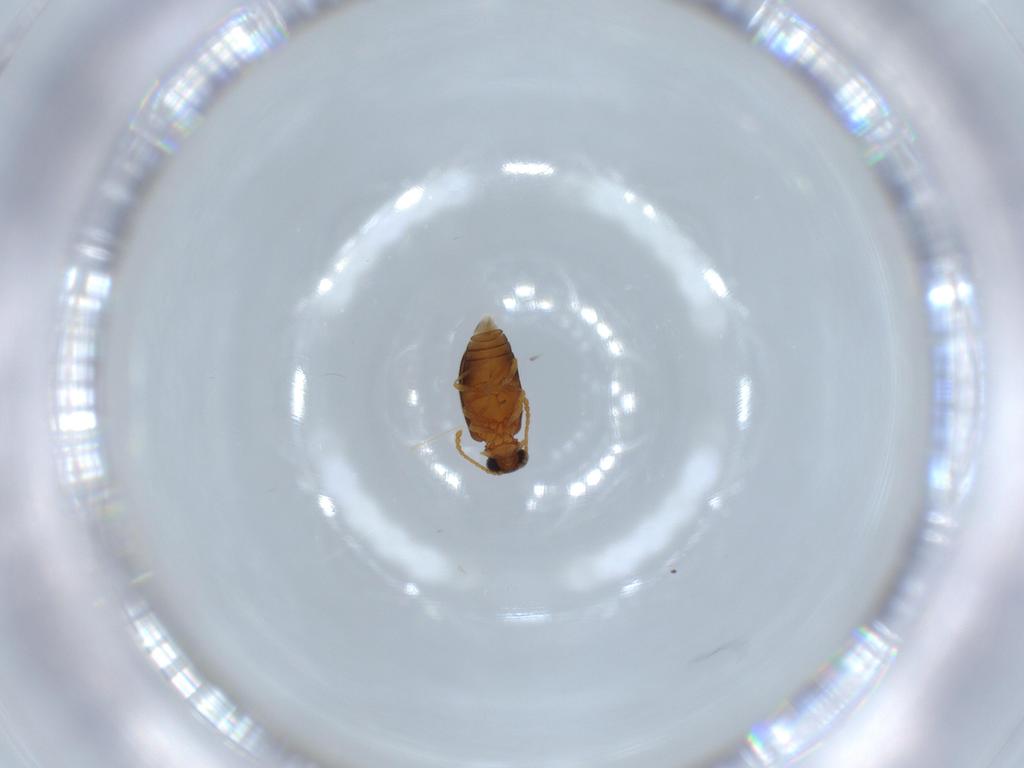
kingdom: Animalia
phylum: Arthropoda
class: Insecta
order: Coleoptera
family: Aderidae
